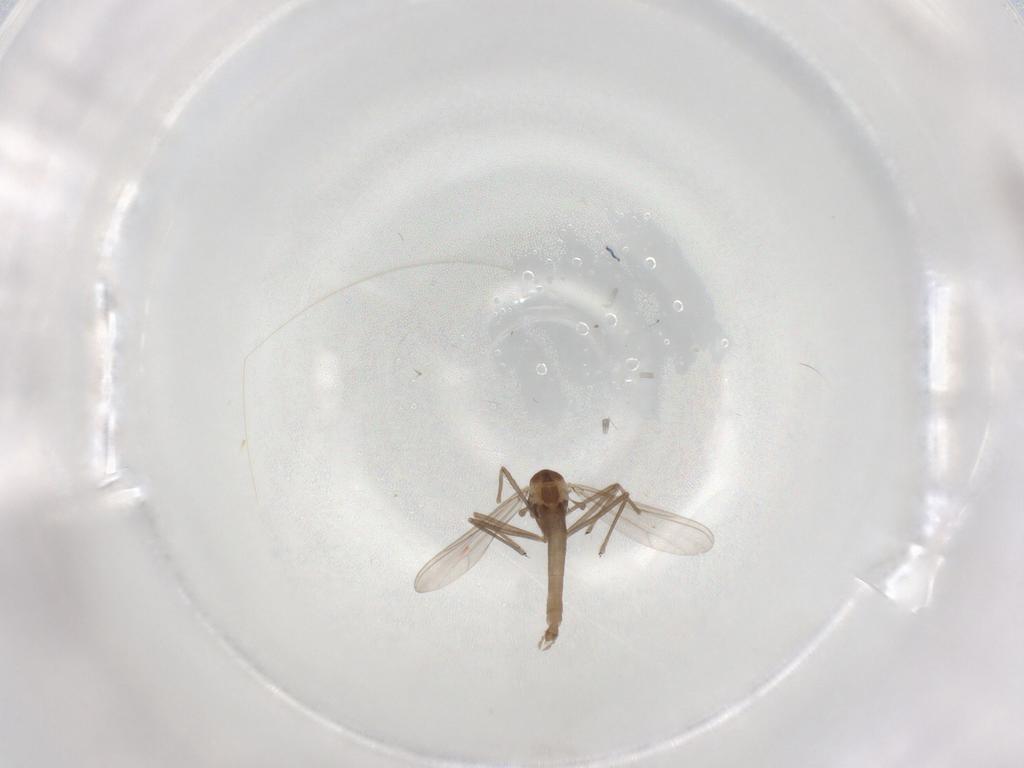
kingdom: Animalia
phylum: Arthropoda
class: Insecta
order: Diptera
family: Chironomidae
